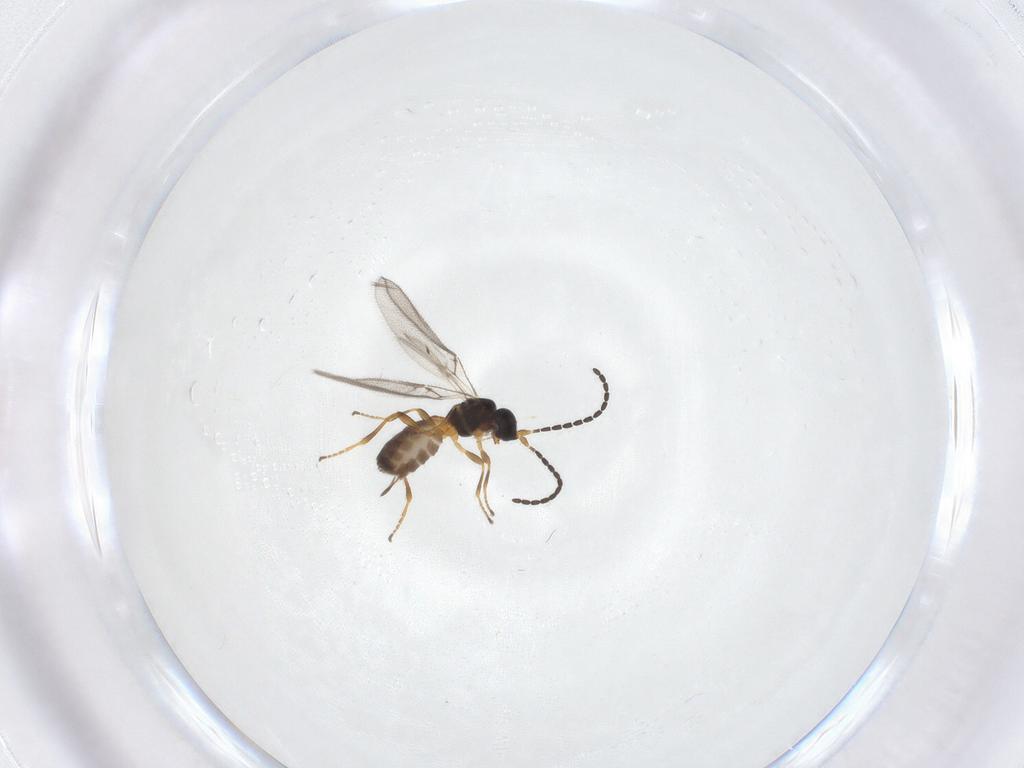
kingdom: Animalia
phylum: Arthropoda
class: Insecta
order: Hymenoptera
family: Braconidae
